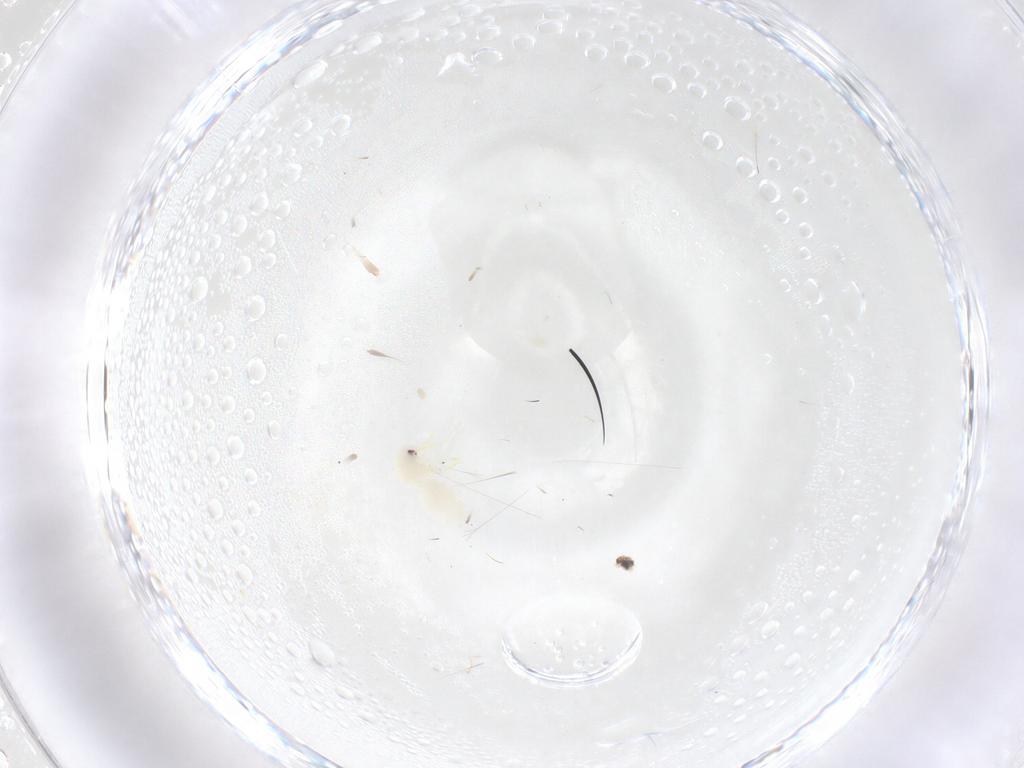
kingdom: Animalia
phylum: Arthropoda
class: Insecta
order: Hemiptera
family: Aleyrodidae
